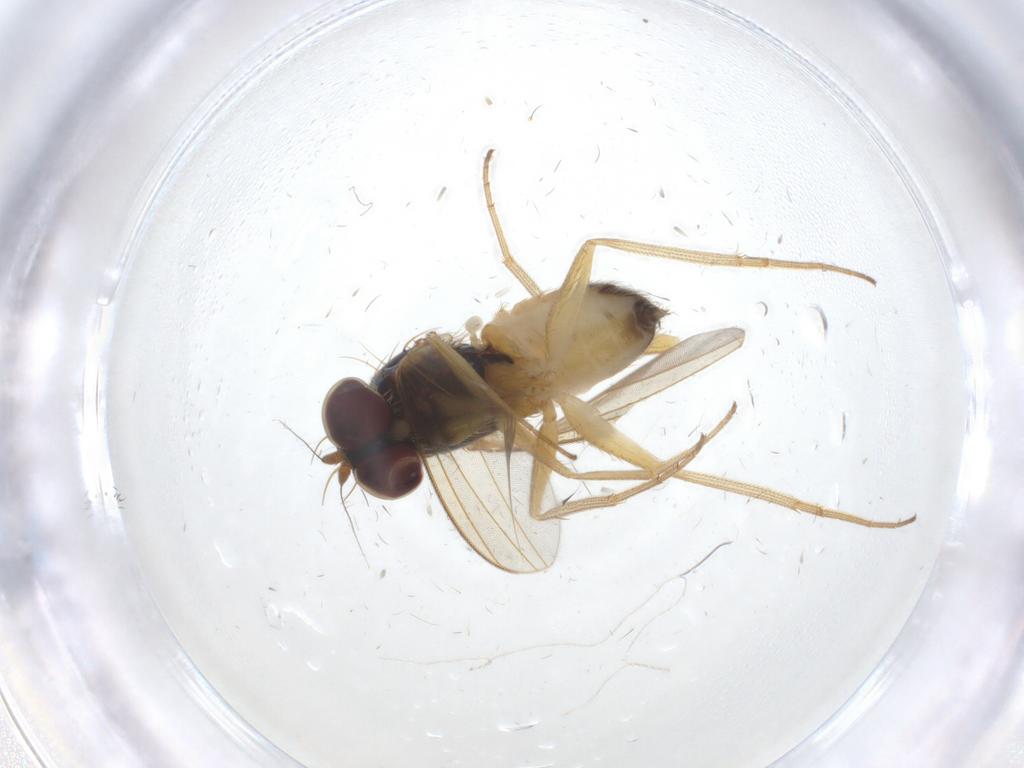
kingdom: Animalia
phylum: Arthropoda
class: Insecta
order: Diptera
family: Dolichopodidae
